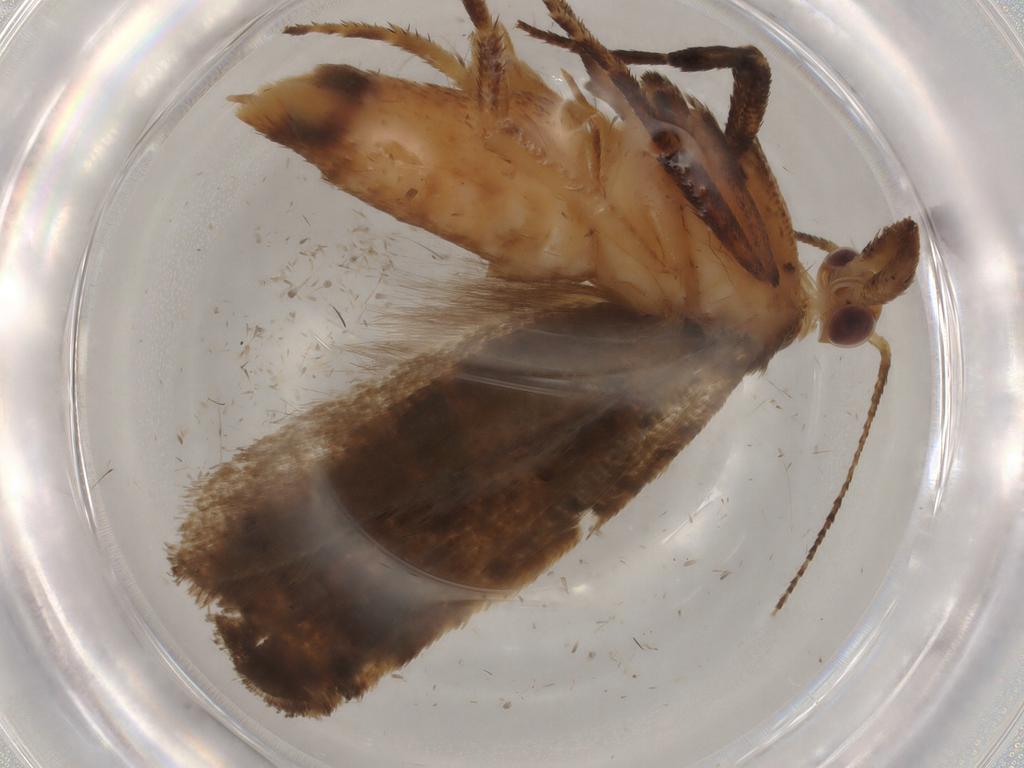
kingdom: Animalia
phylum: Arthropoda
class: Insecta
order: Lepidoptera
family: Gelechiidae
